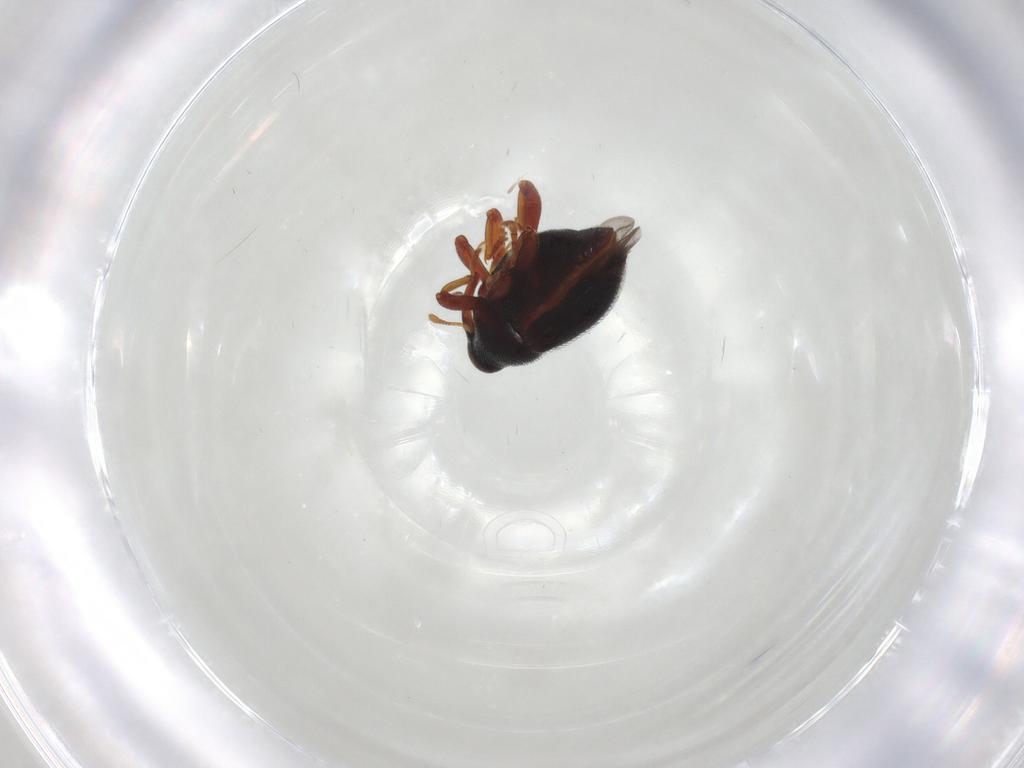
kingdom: Animalia
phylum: Arthropoda
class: Insecta
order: Coleoptera
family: Curculionidae
